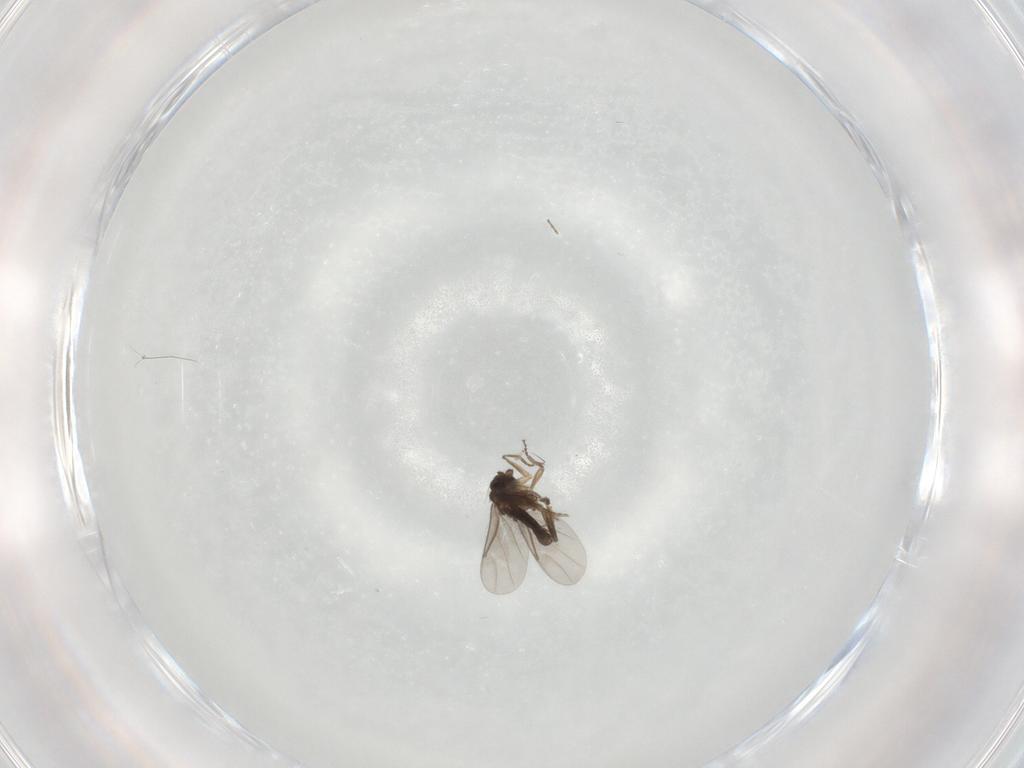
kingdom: Animalia
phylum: Arthropoda
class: Insecta
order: Diptera
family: Chironomidae
